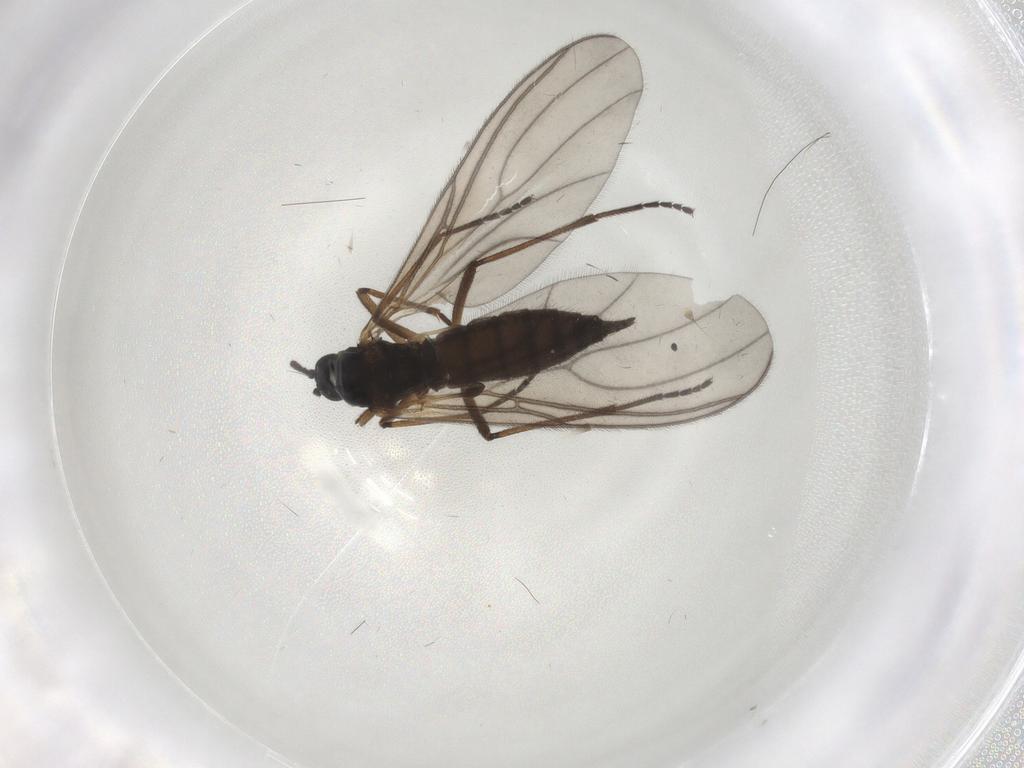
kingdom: Animalia
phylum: Arthropoda
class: Insecta
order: Diptera
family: Sciaridae
